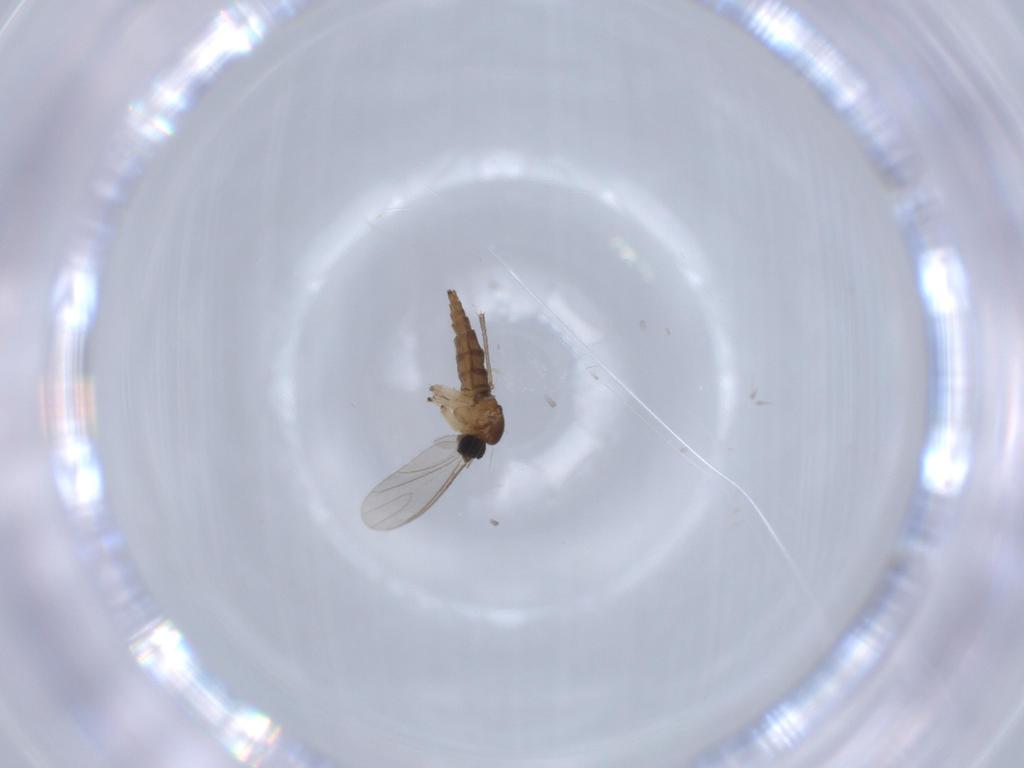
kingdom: Animalia
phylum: Arthropoda
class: Insecta
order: Diptera
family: Sciaridae
